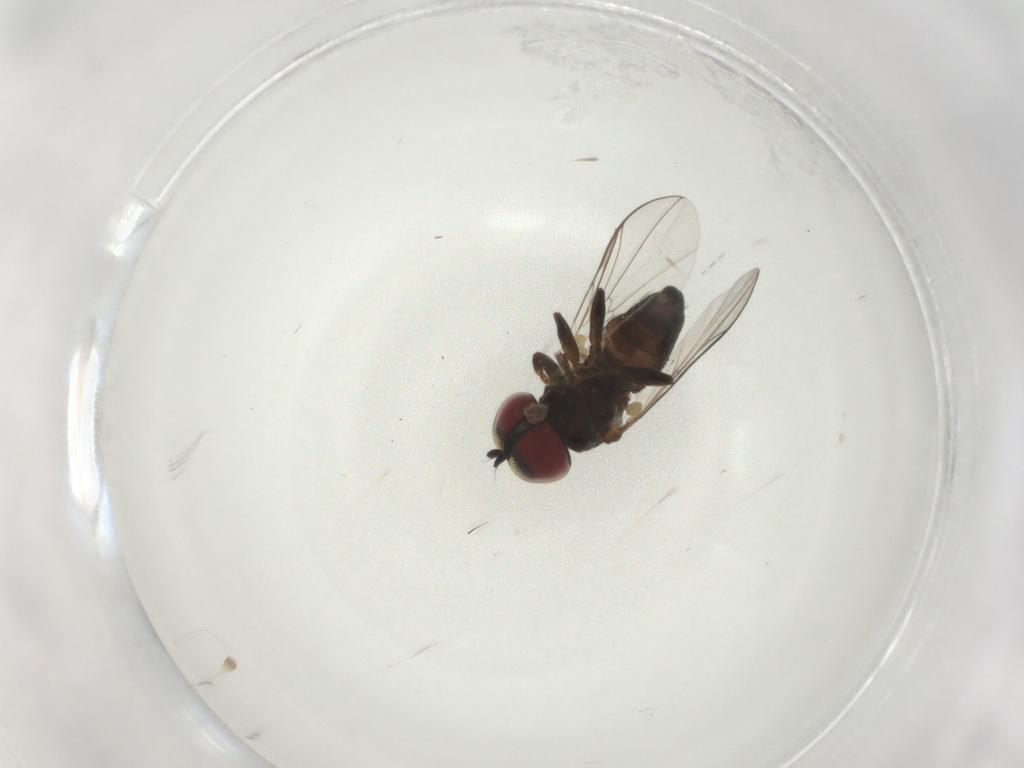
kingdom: Animalia
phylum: Arthropoda
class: Insecta
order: Diptera
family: Pipunculidae
